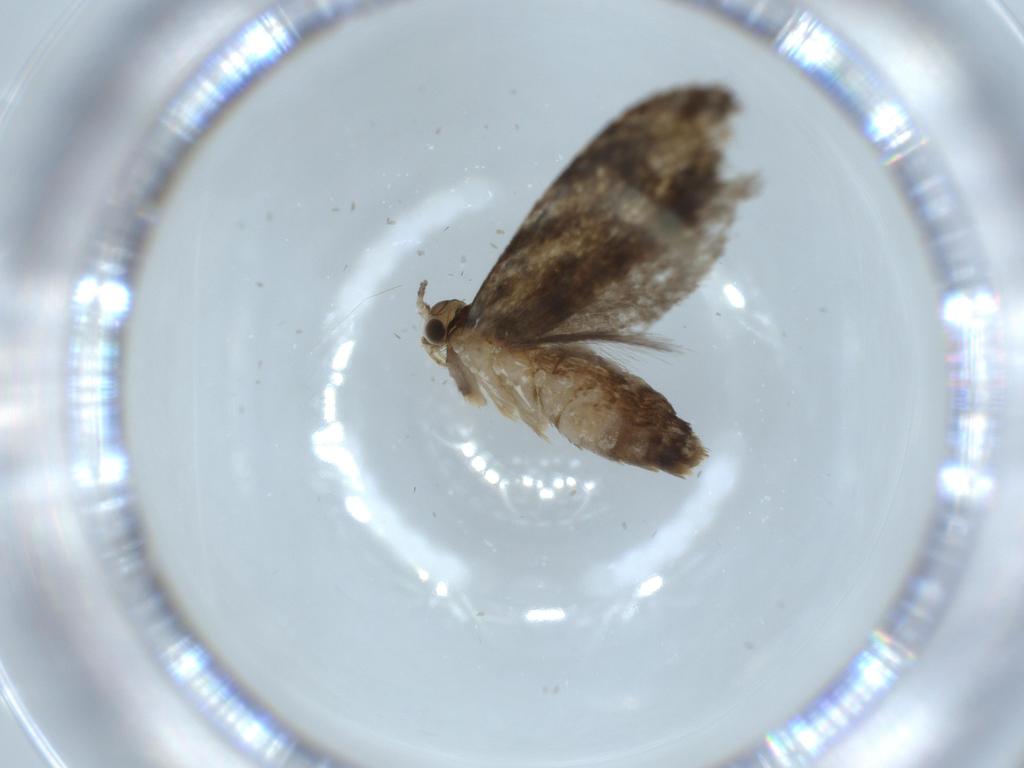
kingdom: Animalia
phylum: Arthropoda
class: Insecta
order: Lepidoptera
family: Tineidae
